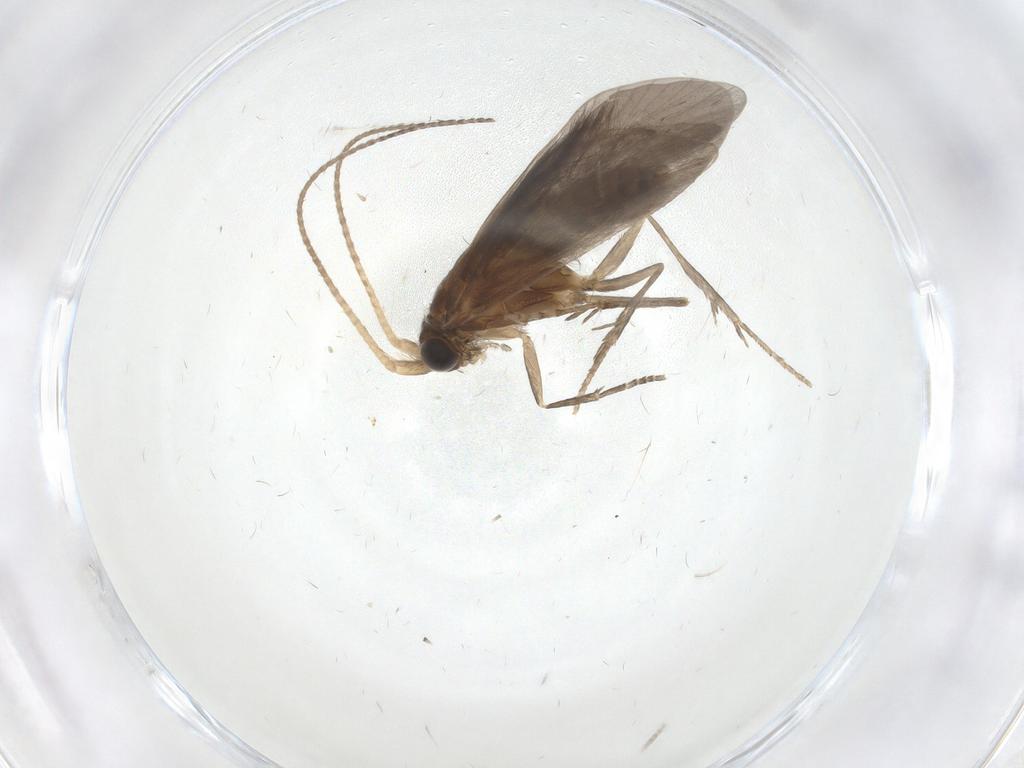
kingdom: Animalia
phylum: Arthropoda
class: Insecta
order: Trichoptera
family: Helicopsychidae
